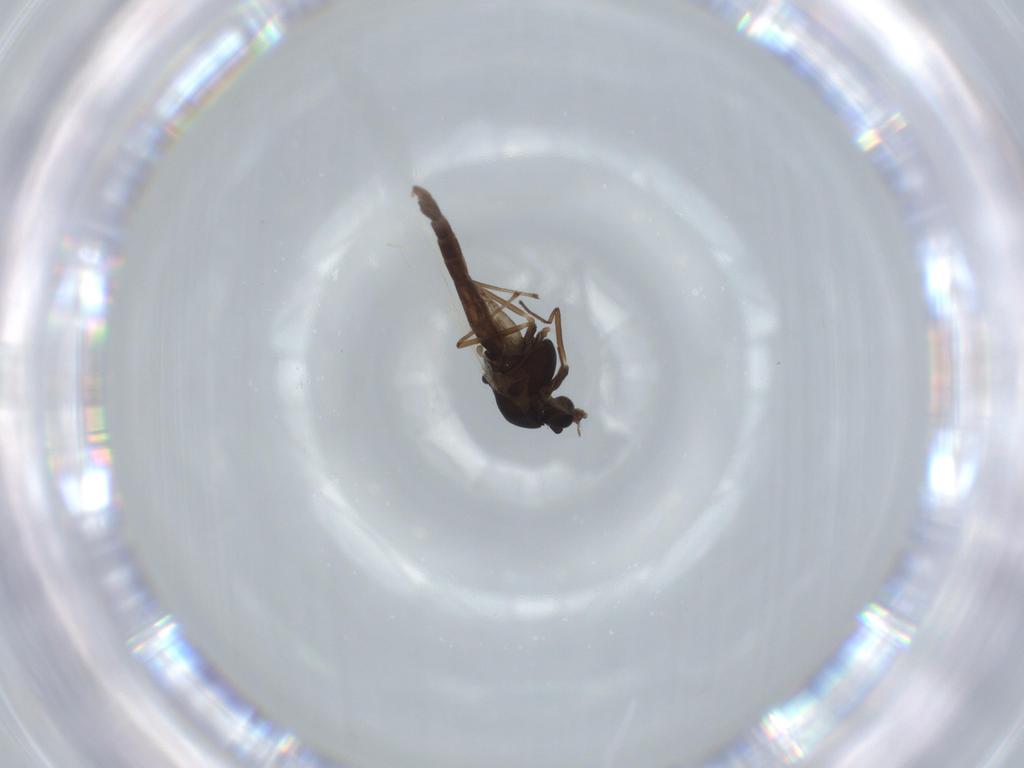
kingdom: Animalia
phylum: Arthropoda
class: Insecta
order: Diptera
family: Chironomidae
